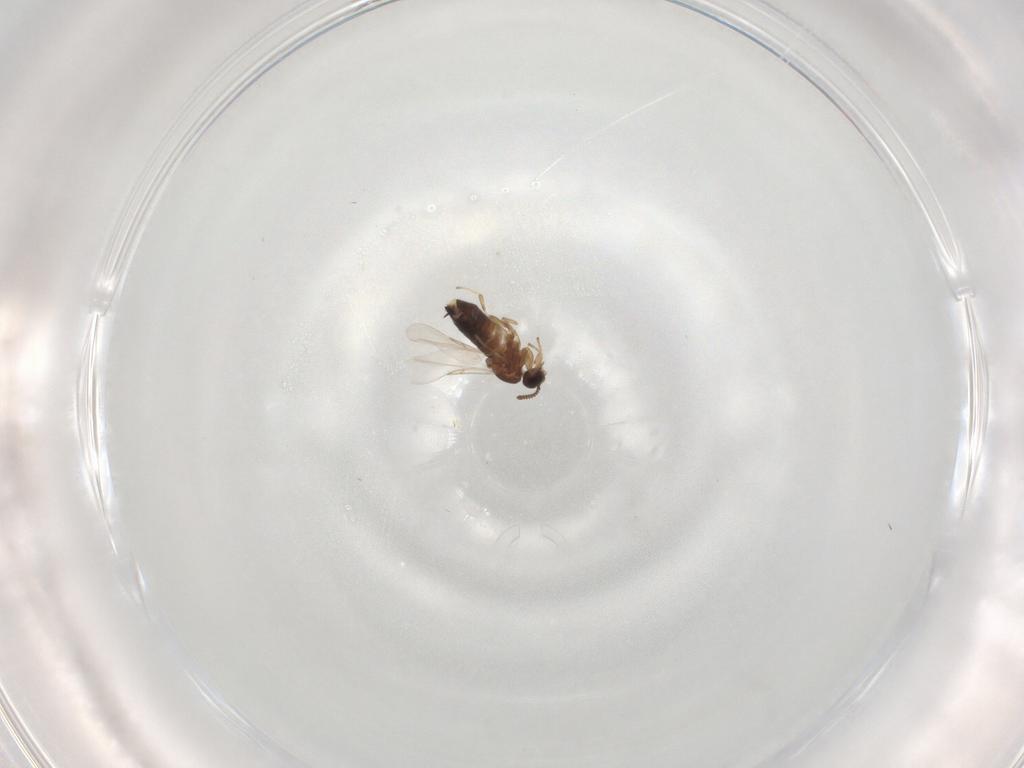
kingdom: Animalia
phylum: Arthropoda
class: Insecta
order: Diptera
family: Scatopsidae
